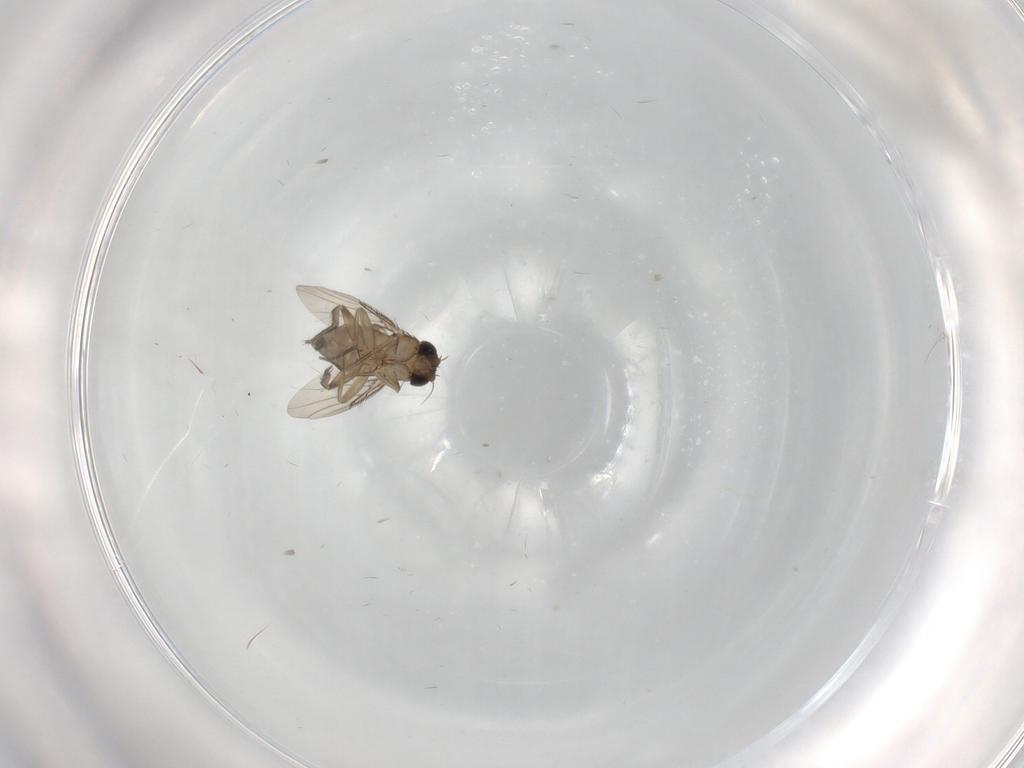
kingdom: Animalia
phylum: Arthropoda
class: Insecta
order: Diptera
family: Phoridae
